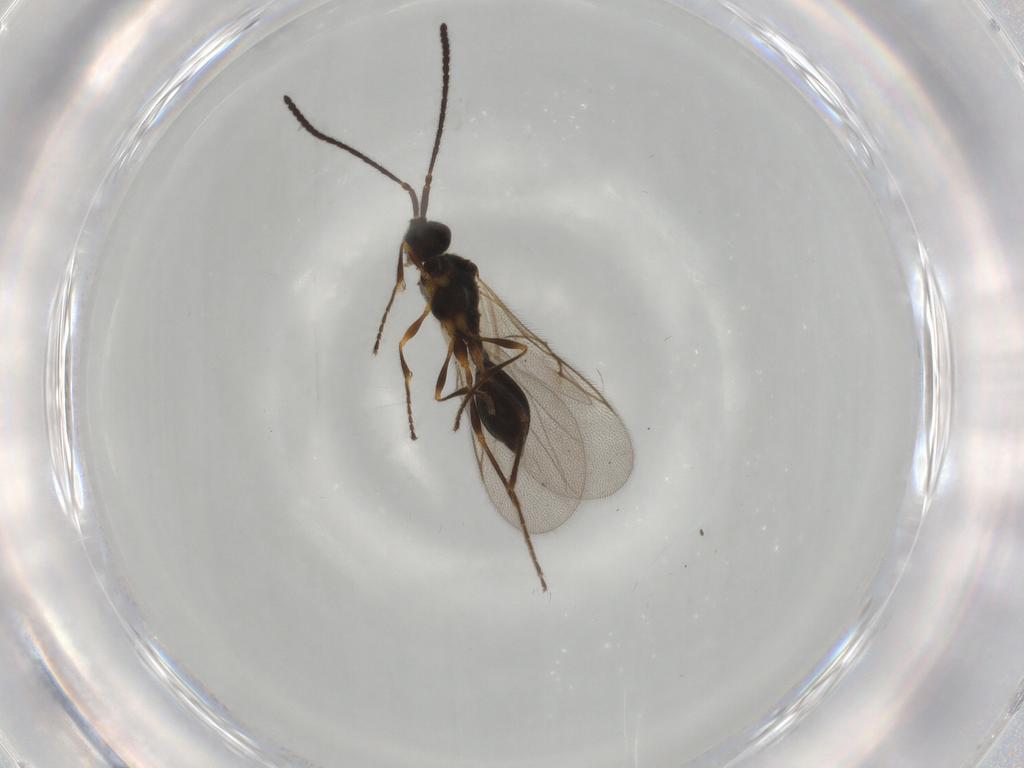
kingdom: Animalia
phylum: Arthropoda
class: Insecta
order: Hymenoptera
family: Diapriidae
